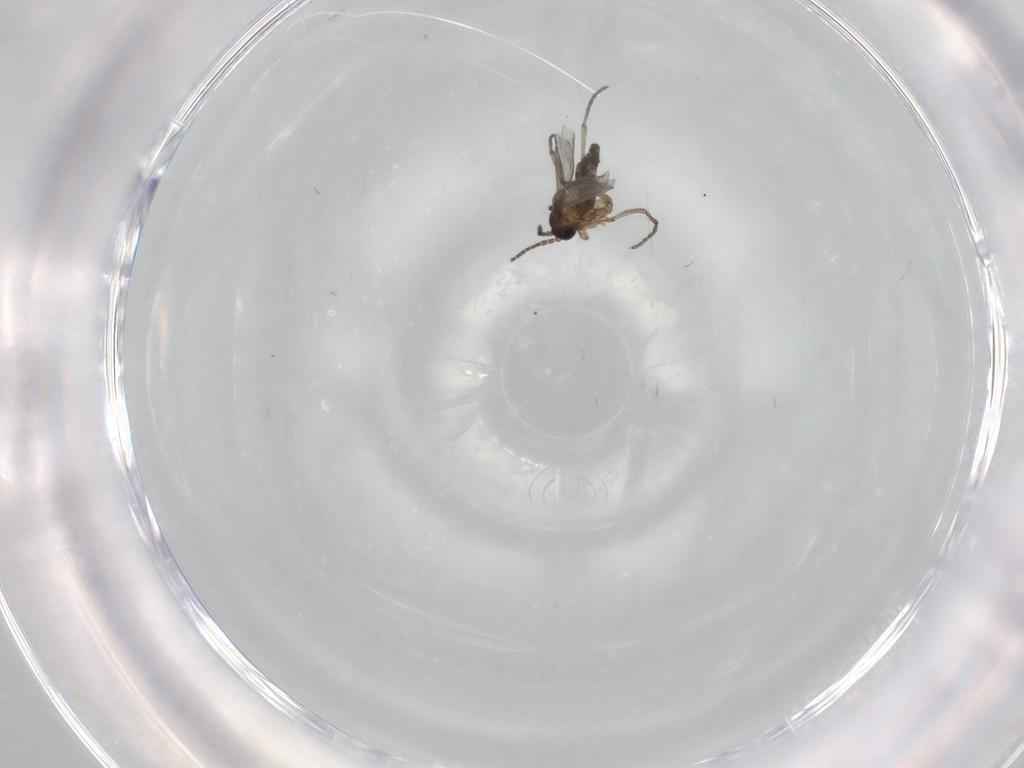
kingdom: Animalia
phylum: Arthropoda
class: Insecta
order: Diptera
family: Sciaridae
